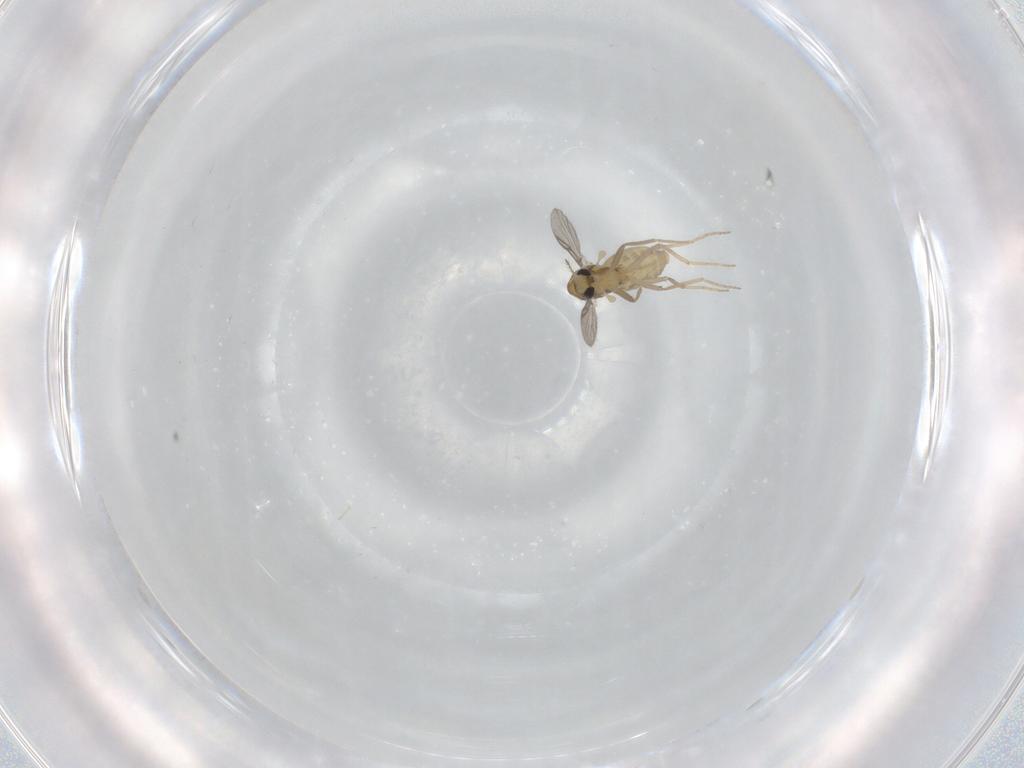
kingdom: Animalia
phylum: Arthropoda
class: Insecta
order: Diptera
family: Chironomidae
